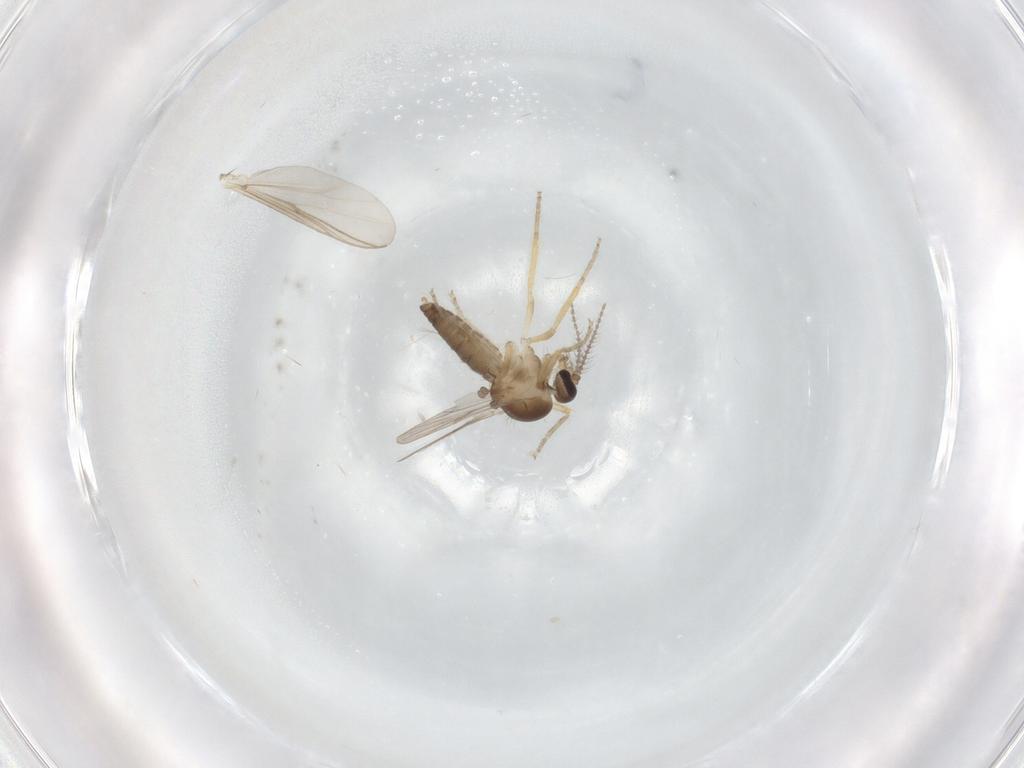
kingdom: Animalia
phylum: Arthropoda
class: Insecta
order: Diptera
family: Ceratopogonidae
